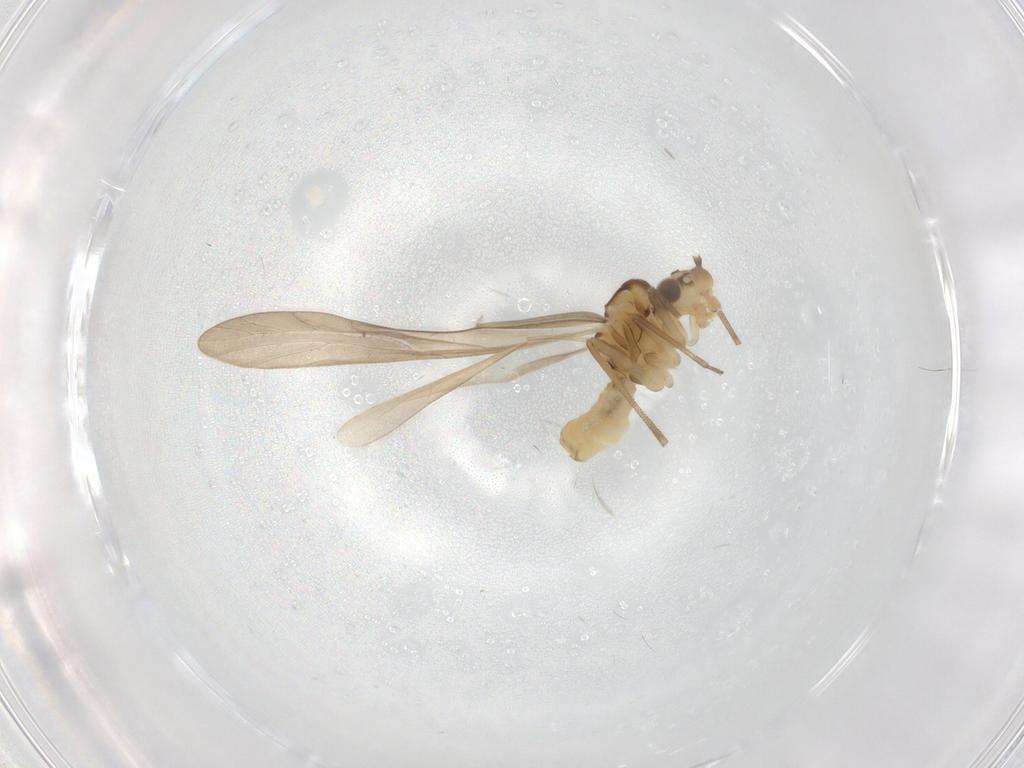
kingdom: Animalia
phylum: Arthropoda
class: Insecta
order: Psocodea
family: Caeciliusidae
